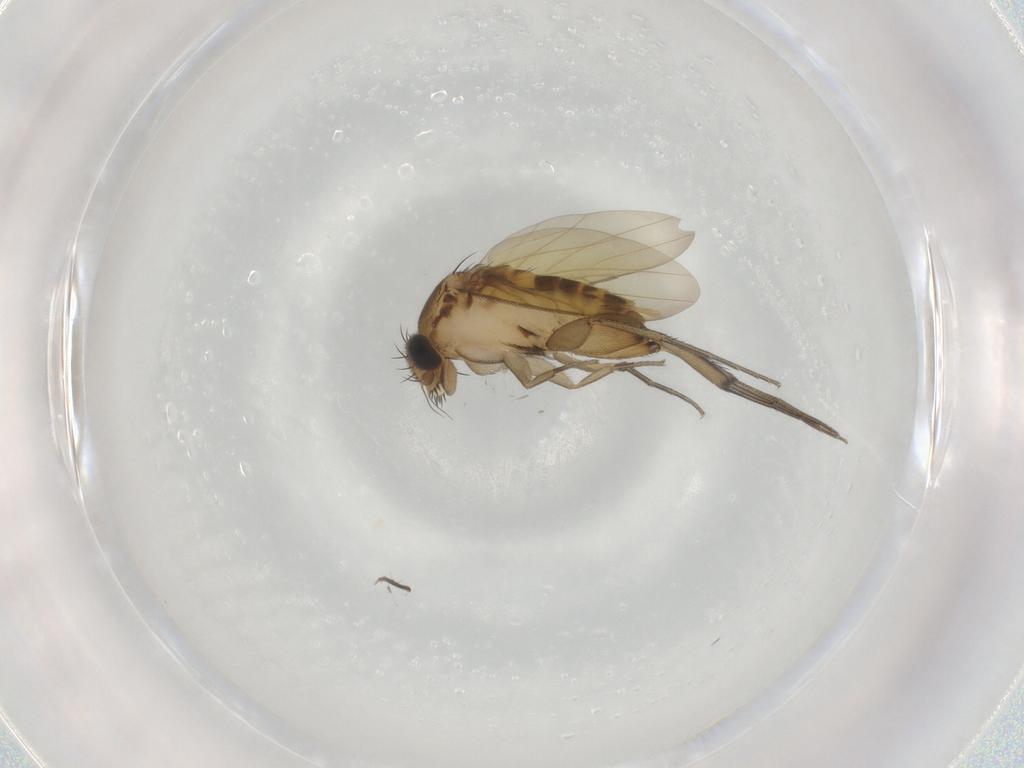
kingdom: Animalia
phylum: Arthropoda
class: Insecta
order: Diptera
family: Phoridae
